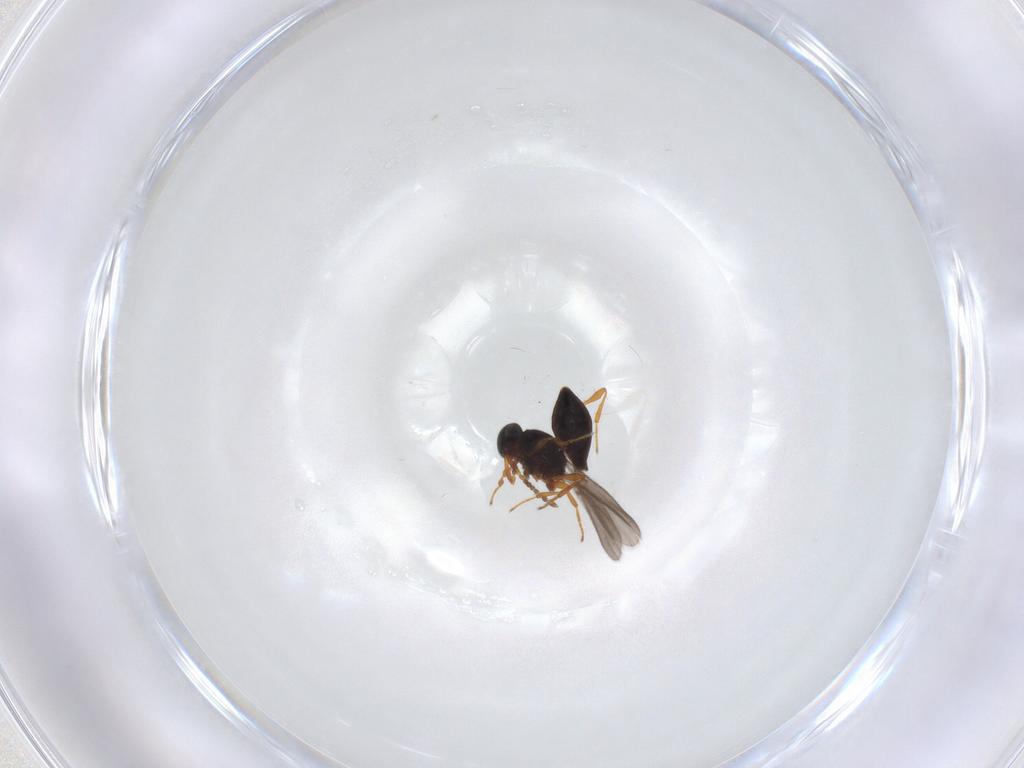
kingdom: Animalia
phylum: Arthropoda
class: Insecta
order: Hymenoptera
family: Platygastridae
